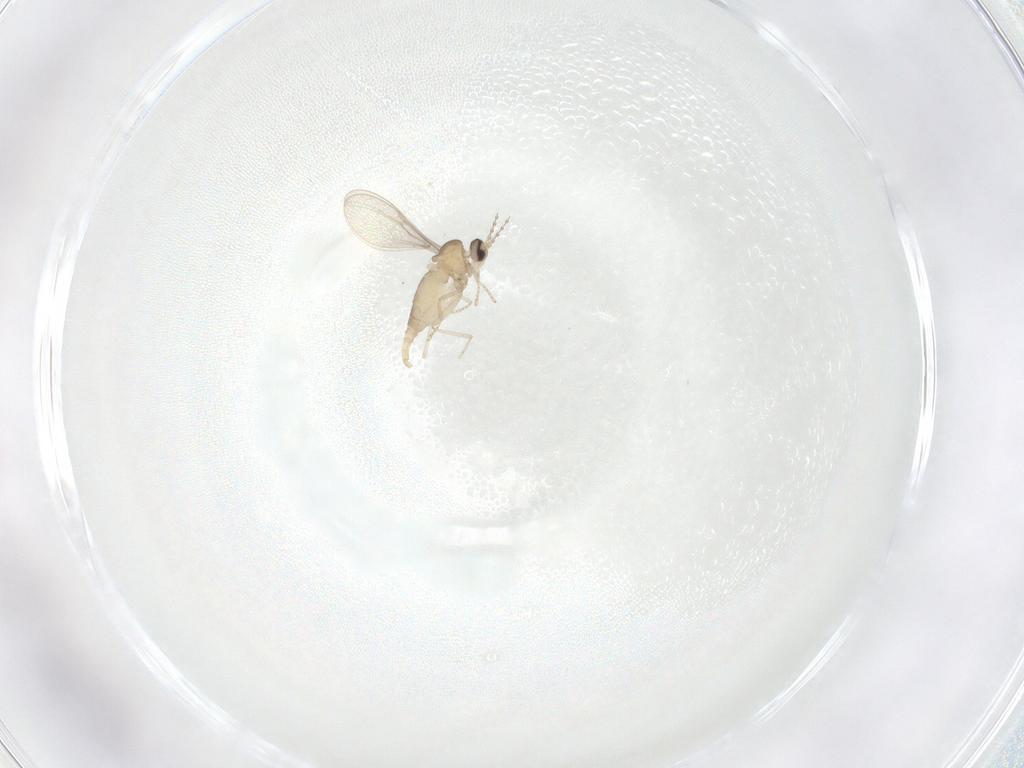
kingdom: Animalia
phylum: Arthropoda
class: Insecta
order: Diptera
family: Cecidomyiidae
